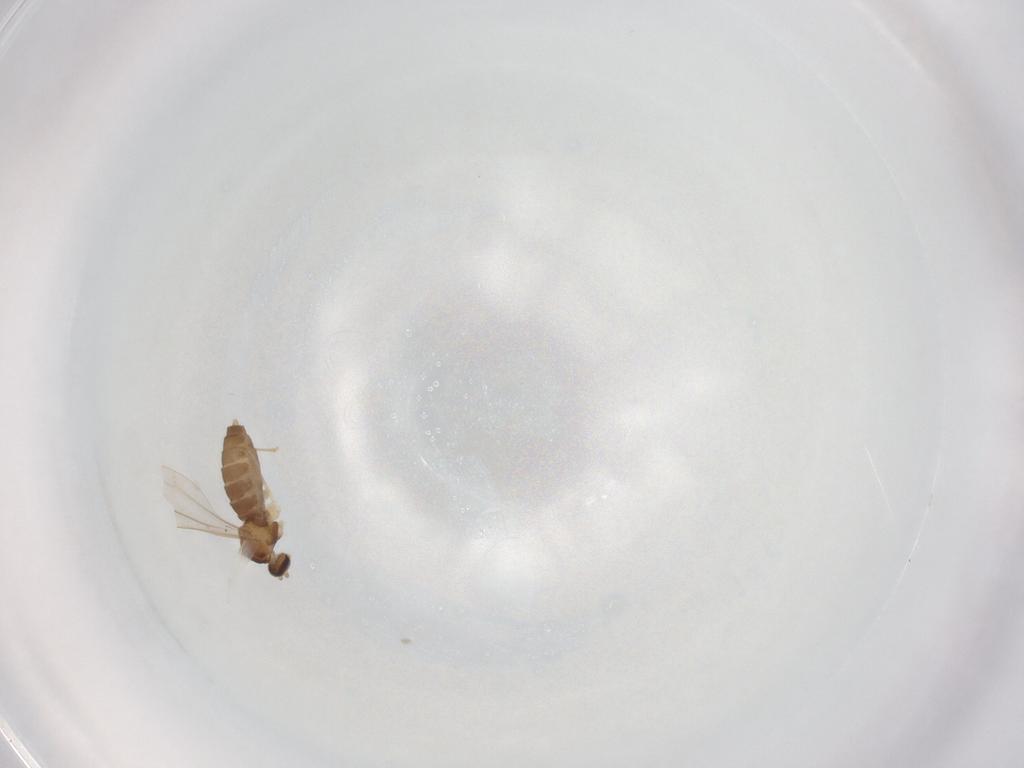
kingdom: Animalia
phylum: Arthropoda
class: Insecta
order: Diptera
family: Cecidomyiidae
